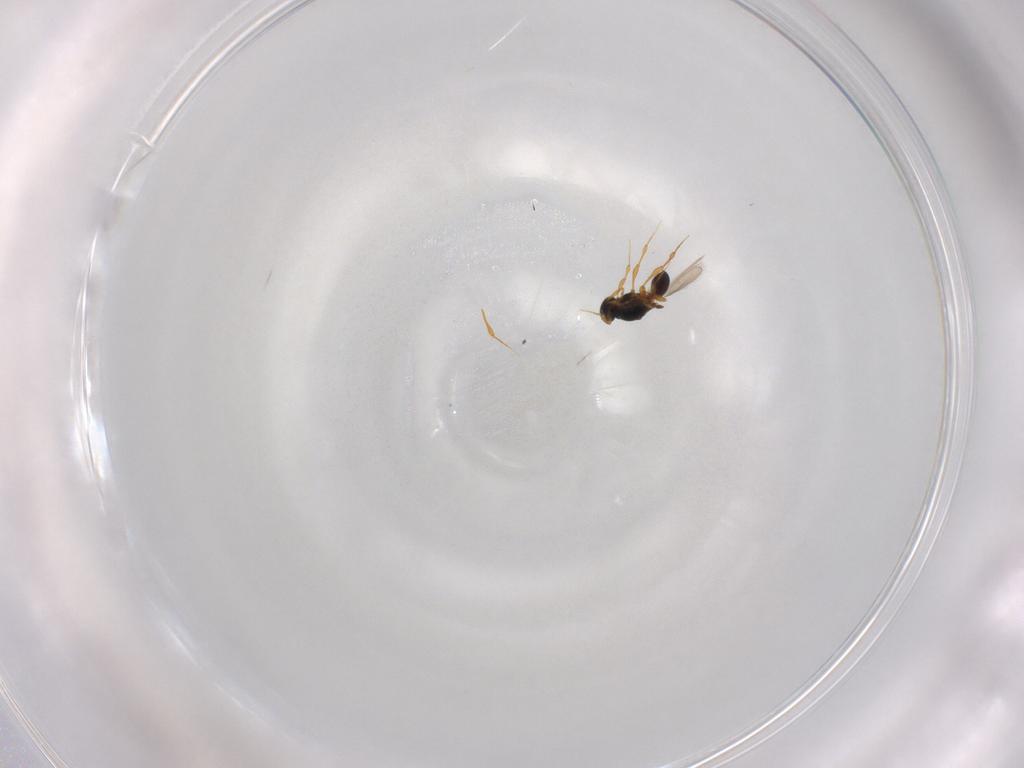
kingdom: Animalia
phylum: Arthropoda
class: Insecta
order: Hymenoptera
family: Platygastridae
